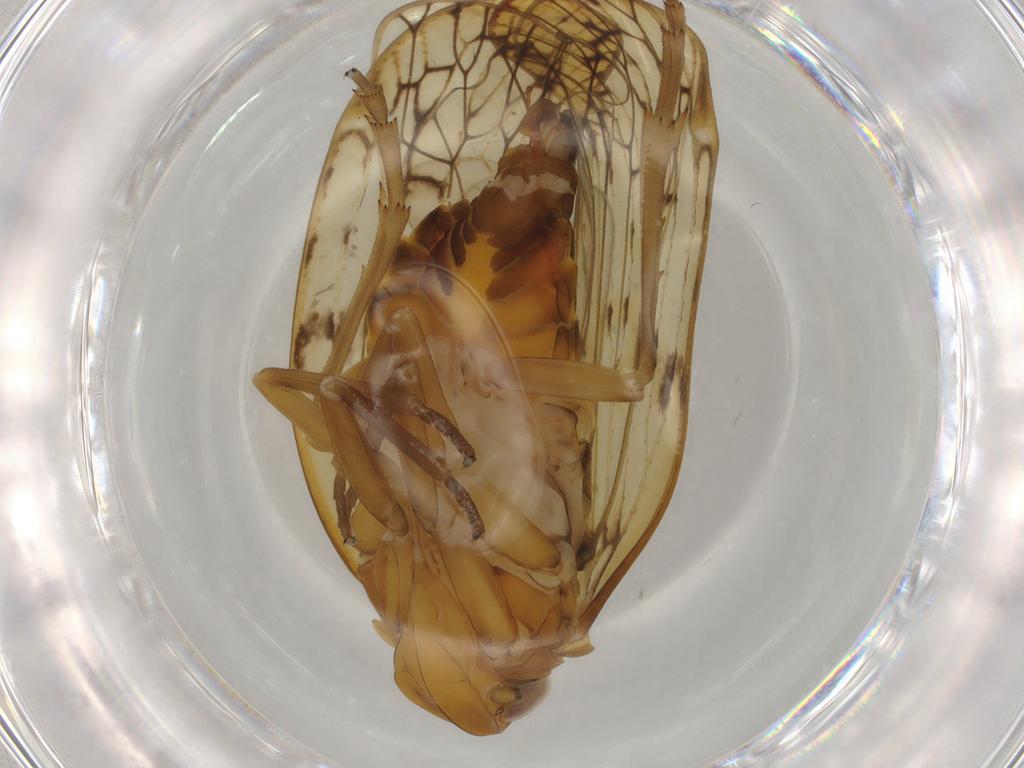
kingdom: Animalia
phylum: Arthropoda
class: Insecta
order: Hemiptera
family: Cixiidae
